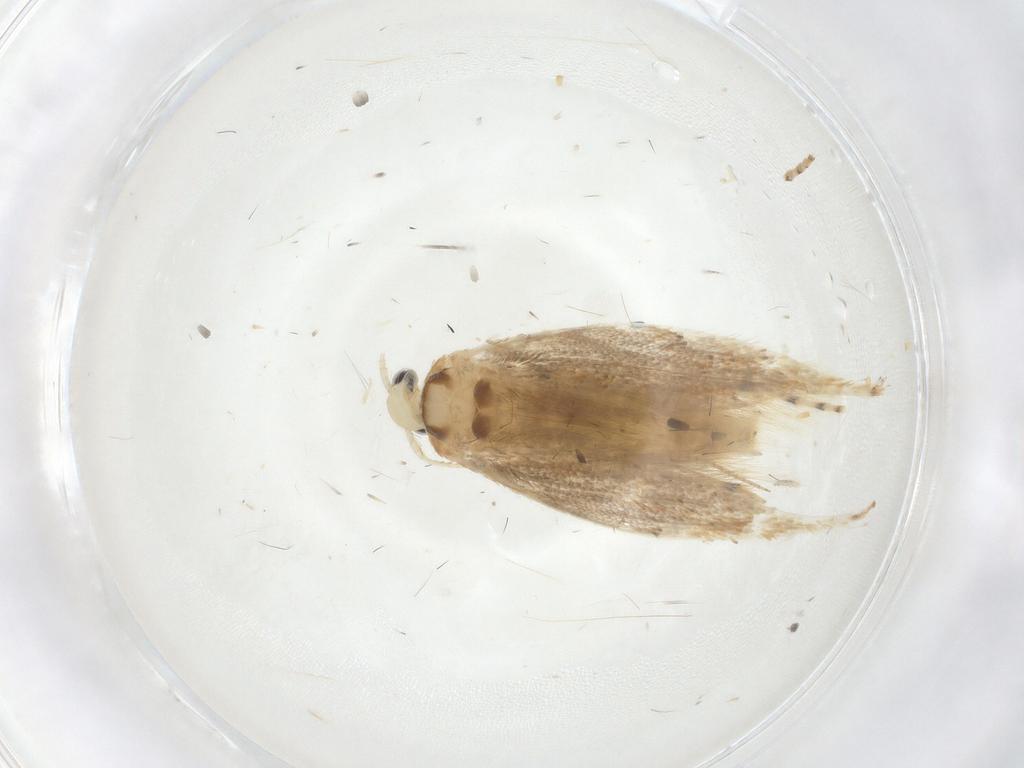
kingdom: Animalia
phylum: Arthropoda
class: Insecta
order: Lepidoptera
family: Gracillariidae
